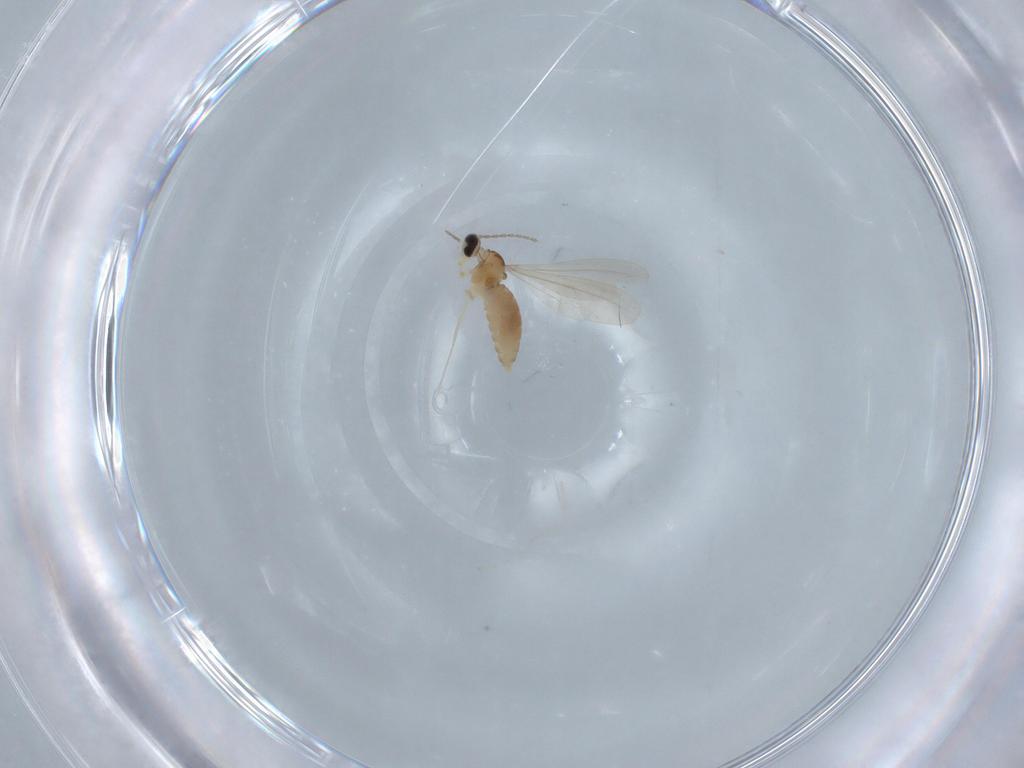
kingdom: Animalia
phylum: Arthropoda
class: Insecta
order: Diptera
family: Cecidomyiidae
